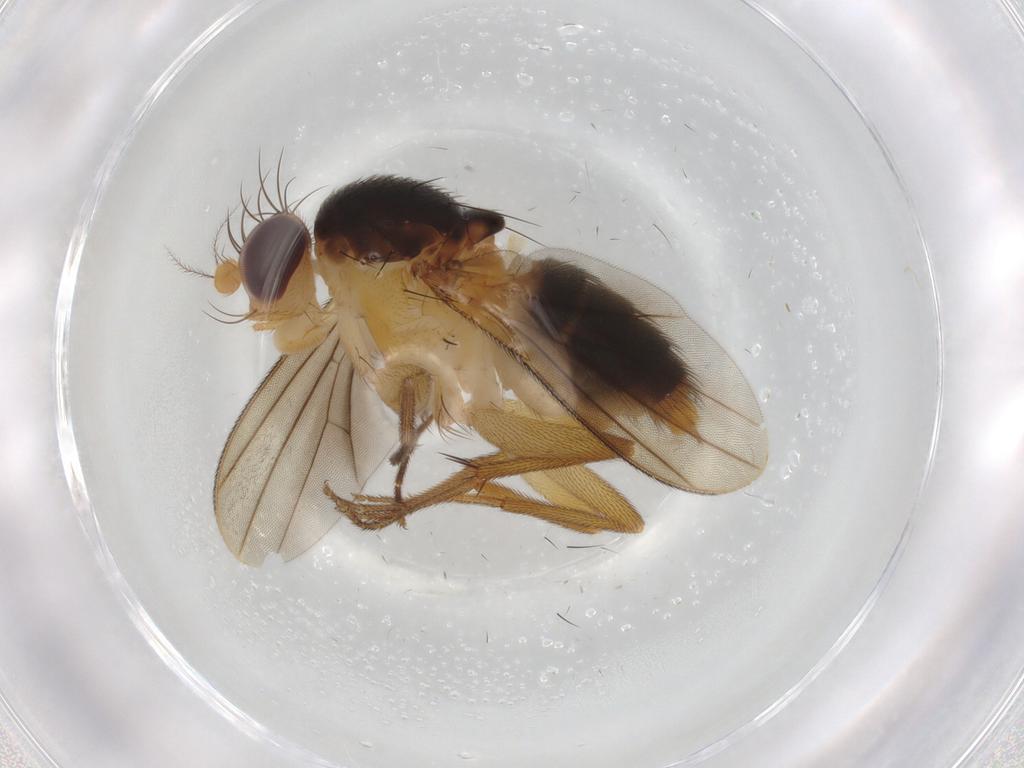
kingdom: Animalia
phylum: Arthropoda
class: Insecta
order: Diptera
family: Clusiidae
